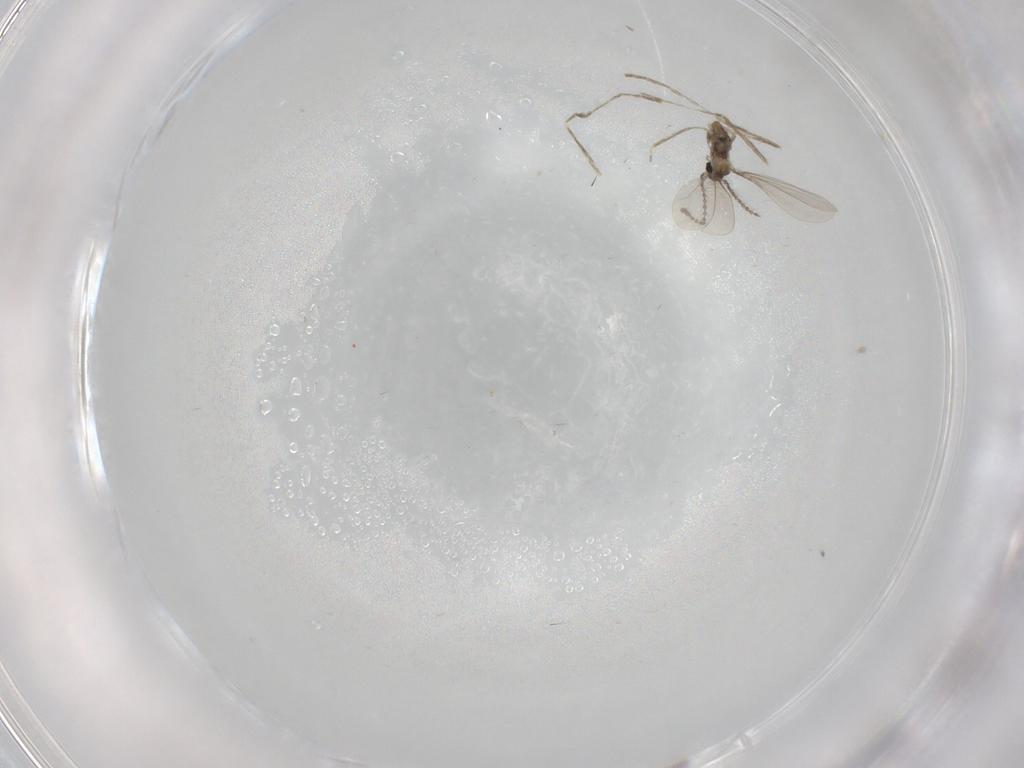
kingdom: Animalia
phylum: Arthropoda
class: Insecta
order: Diptera
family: Cecidomyiidae
